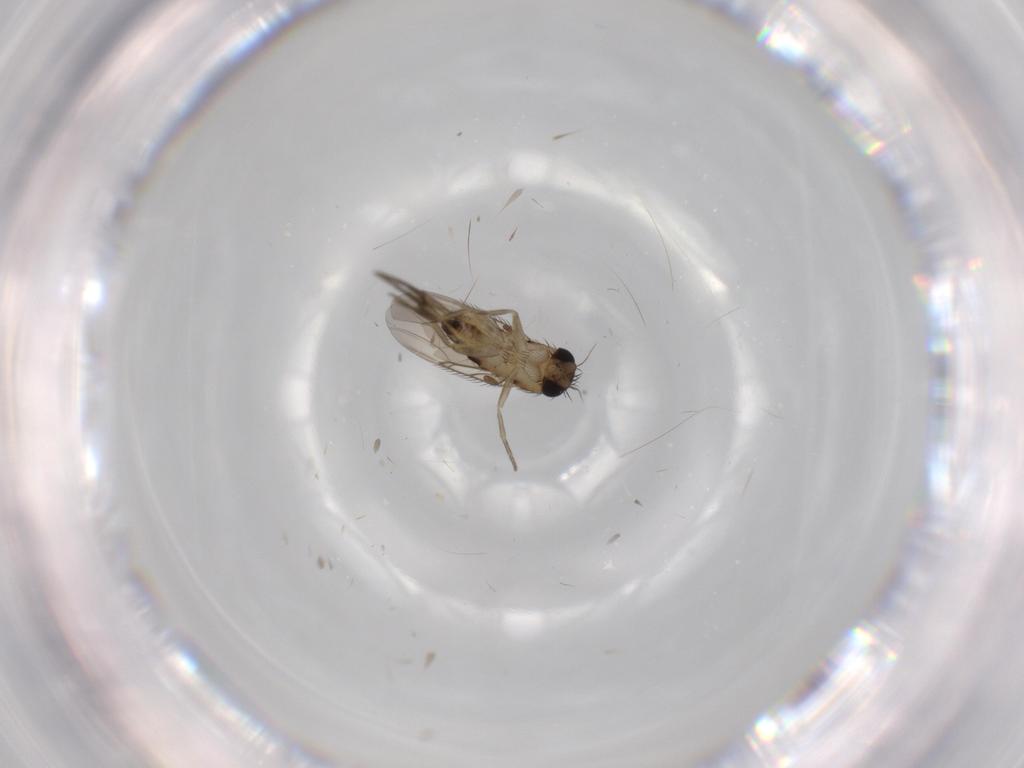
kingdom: Animalia
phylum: Arthropoda
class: Insecta
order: Diptera
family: Phoridae
